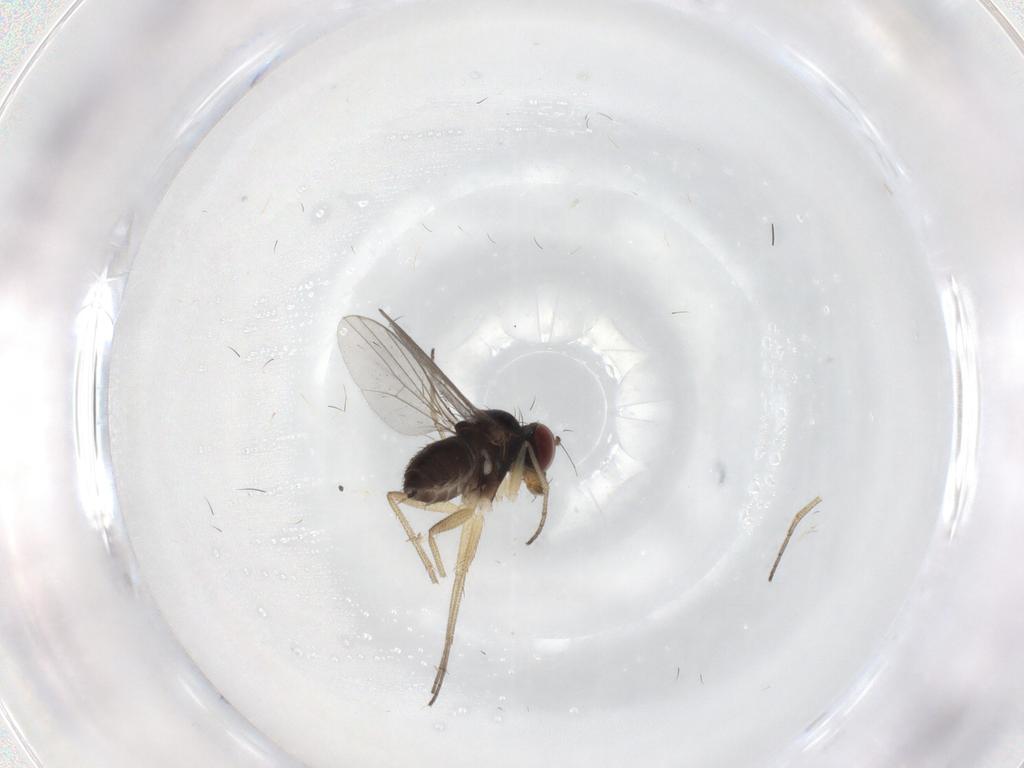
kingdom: Animalia
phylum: Arthropoda
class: Insecta
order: Diptera
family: Dolichopodidae
